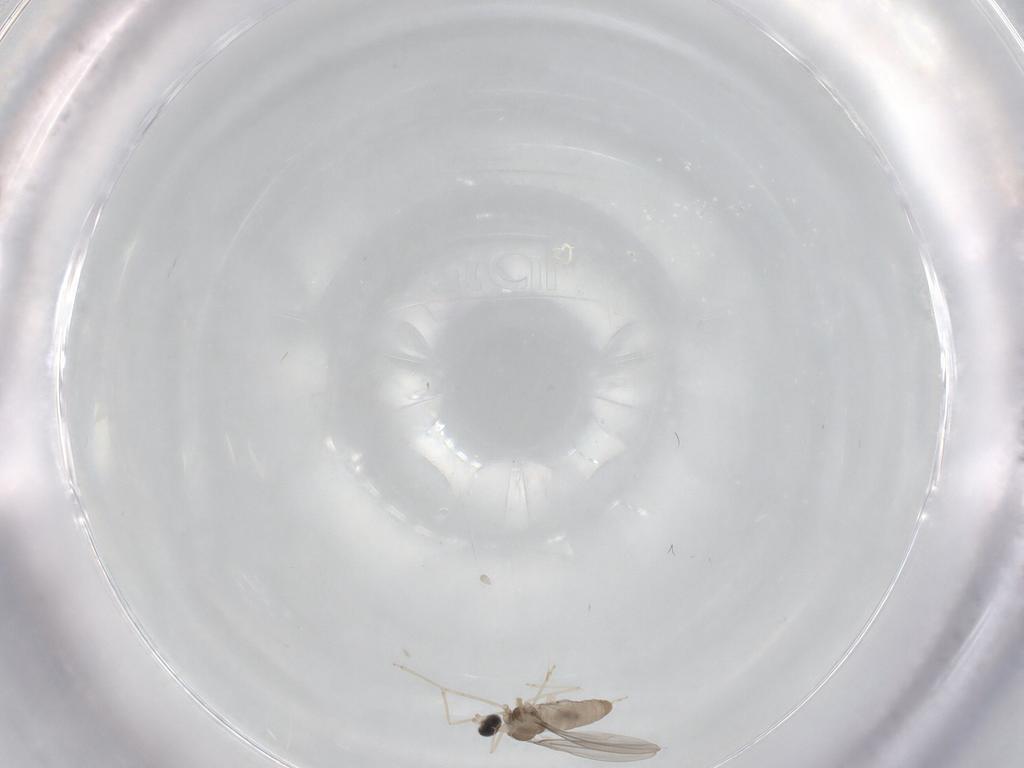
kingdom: Animalia
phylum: Arthropoda
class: Insecta
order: Diptera
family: Cecidomyiidae
